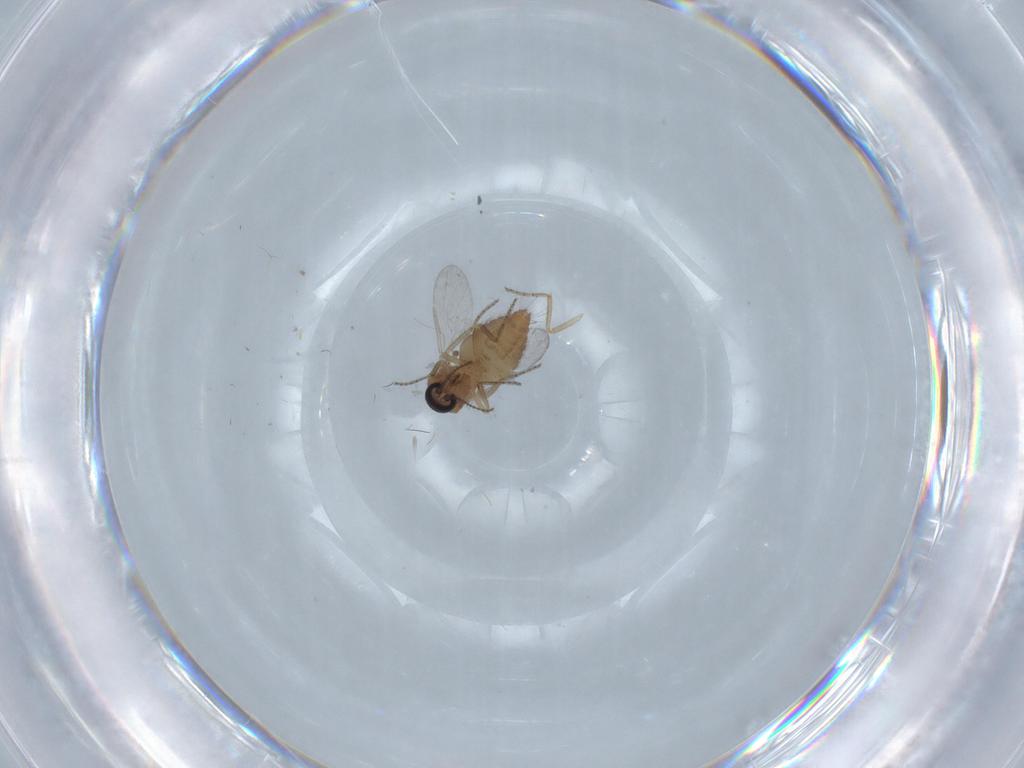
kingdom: Animalia
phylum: Arthropoda
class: Insecta
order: Diptera
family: Ceratopogonidae
